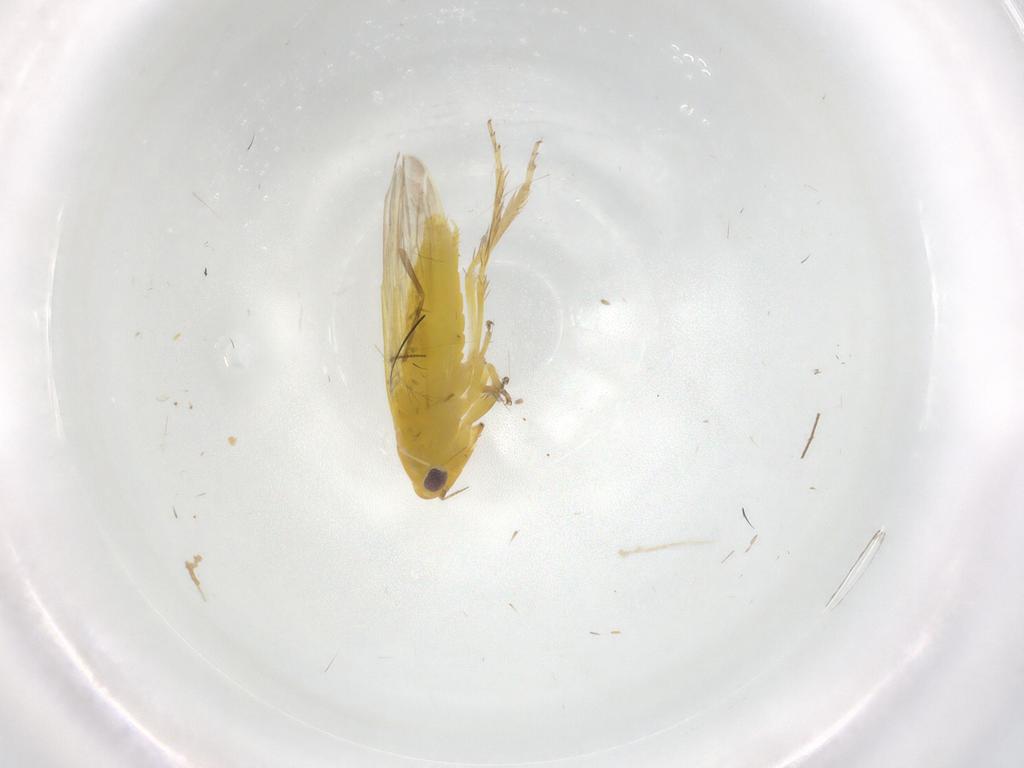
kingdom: Animalia
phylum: Arthropoda
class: Insecta
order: Hemiptera
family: Cicadellidae
